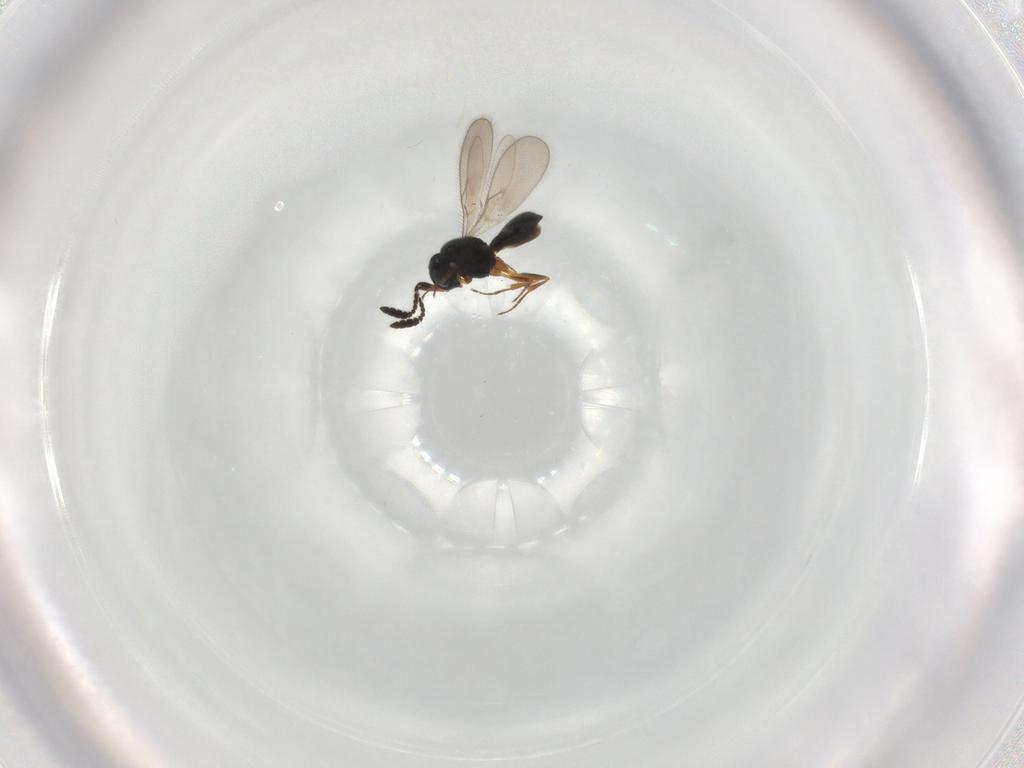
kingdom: Animalia
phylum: Arthropoda
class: Insecta
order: Hymenoptera
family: Scelionidae
